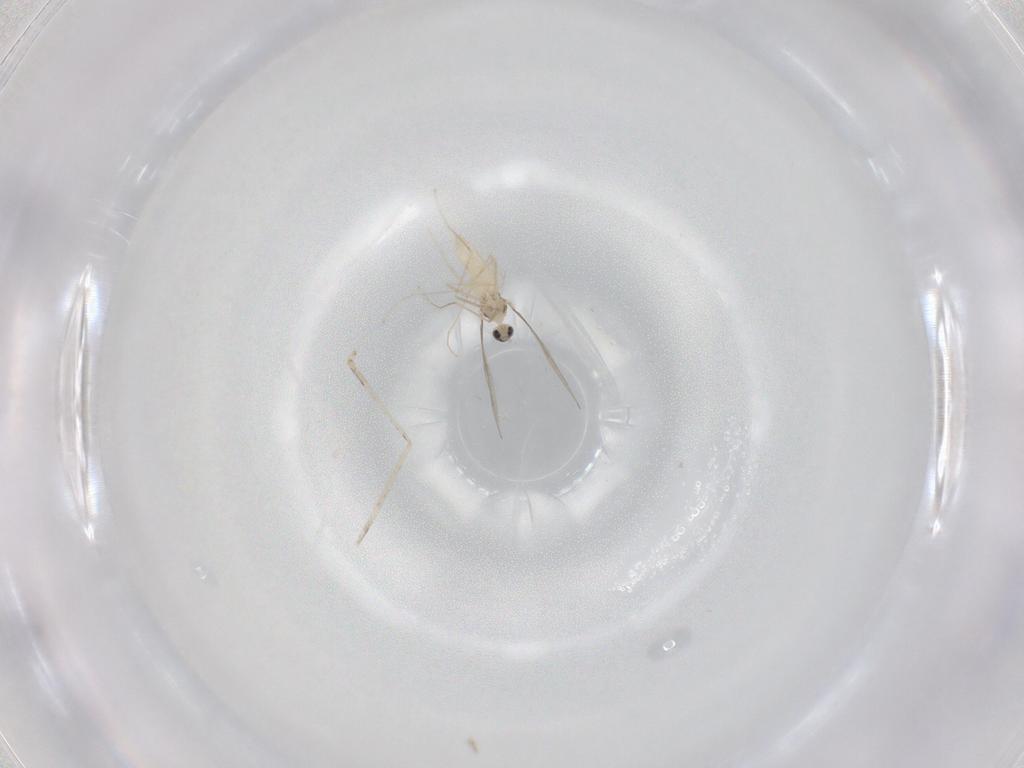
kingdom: Animalia
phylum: Arthropoda
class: Insecta
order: Diptera
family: Cecidomyiidae
